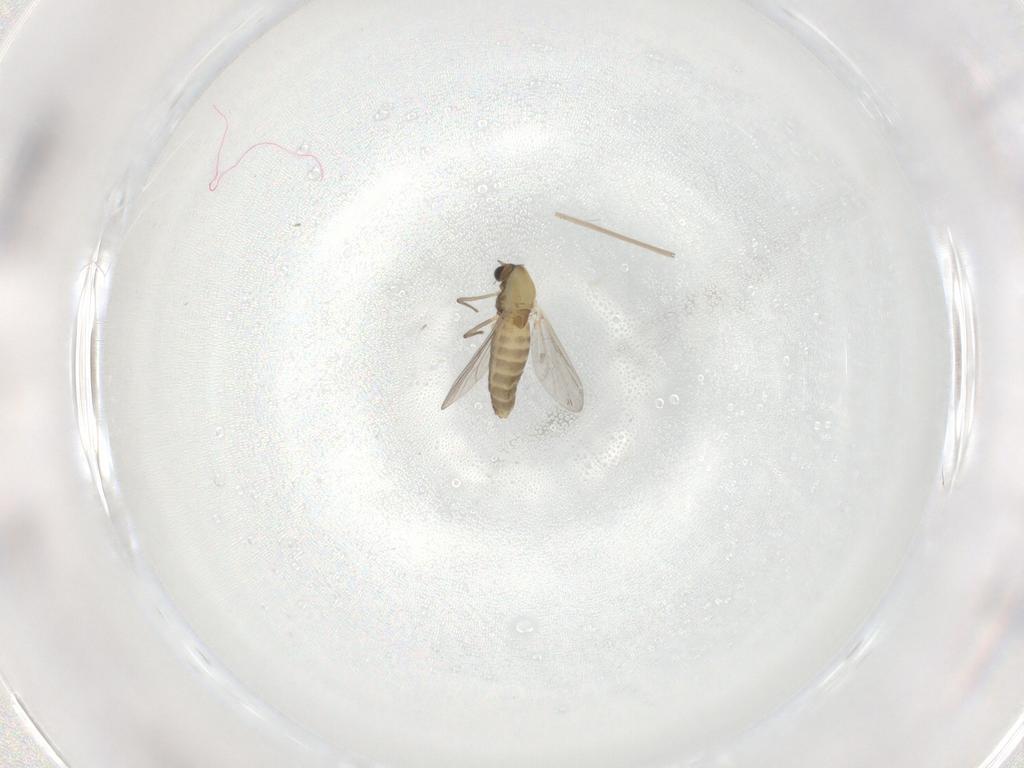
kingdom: Animalia
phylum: Arthropoda
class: Insecta
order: Diptera
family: Chironomidae
